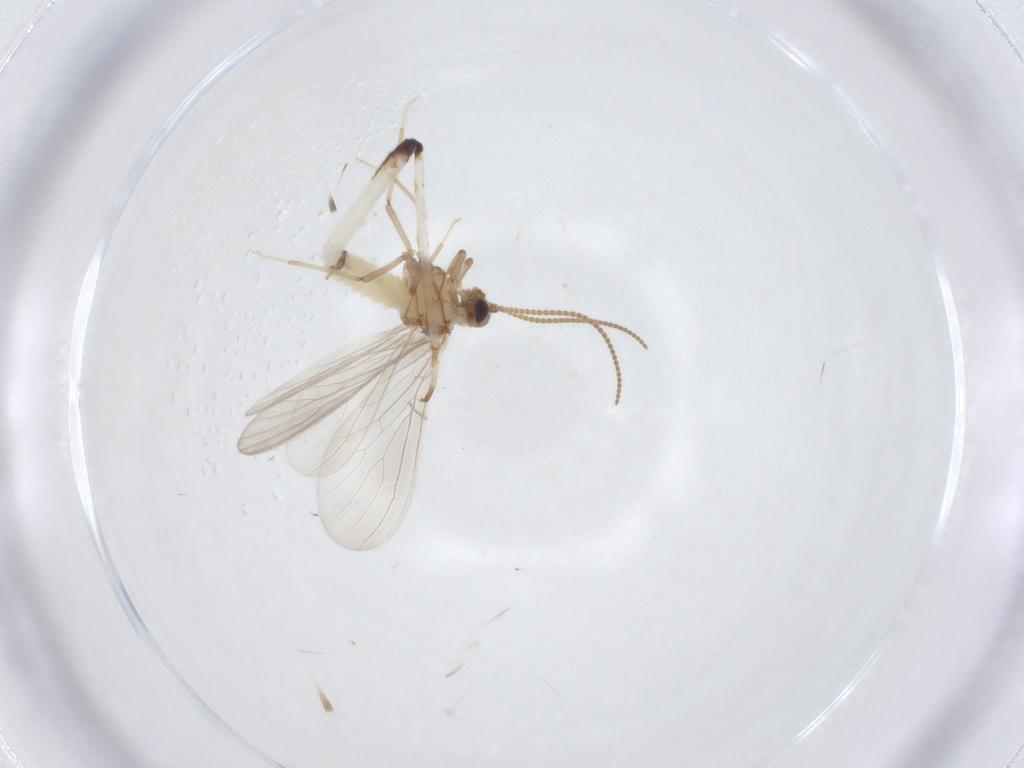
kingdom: Animalia
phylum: Arthropoda
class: Insecta
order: Neuroptera
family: Coniopterygidae
